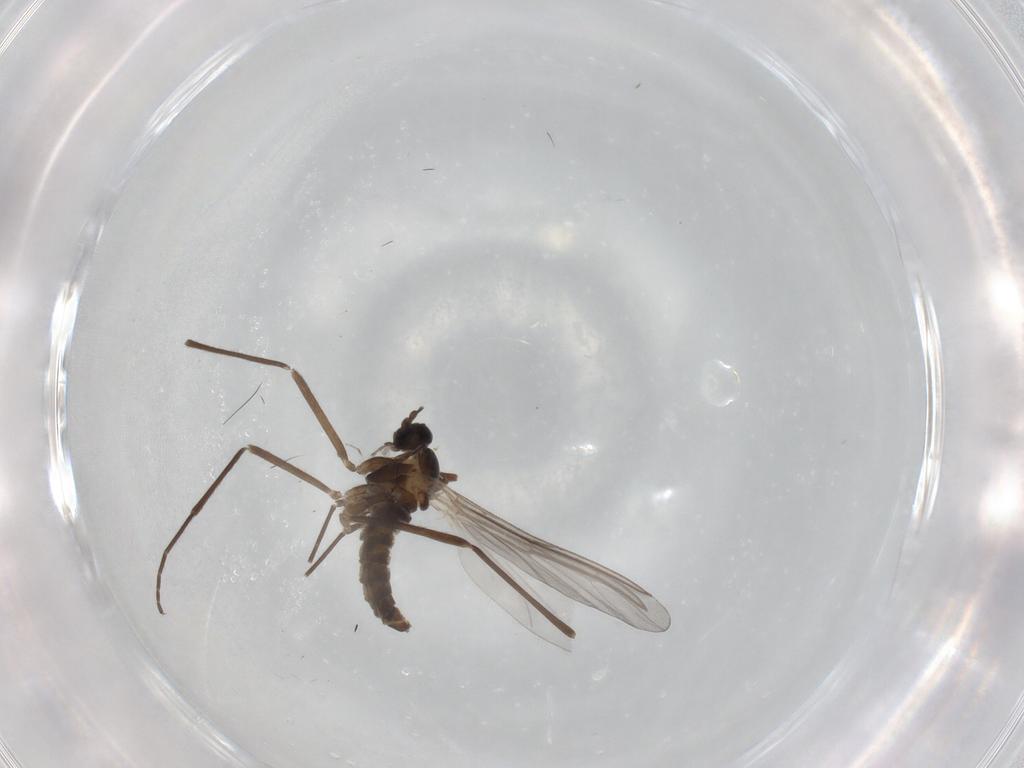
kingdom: Animalia
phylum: Arthropoda
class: Insecta
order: Diptera
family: Cecidomyiidae
